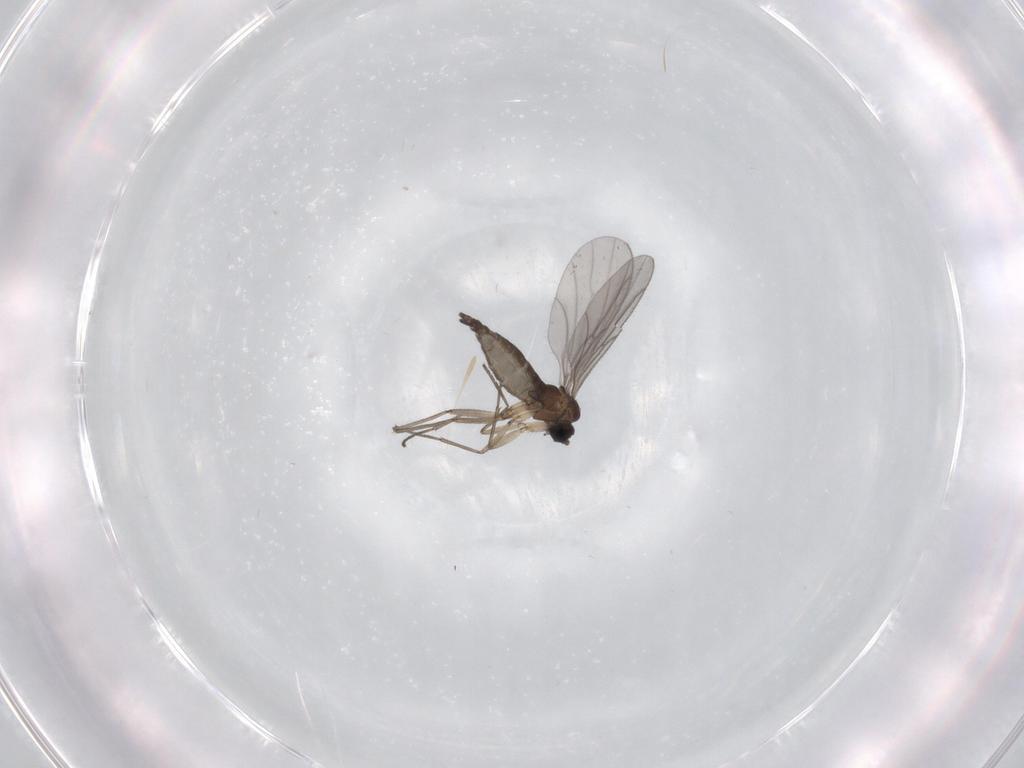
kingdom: Animalia
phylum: Arthropoda
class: Insecta
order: Diptera
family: Sciaridae
